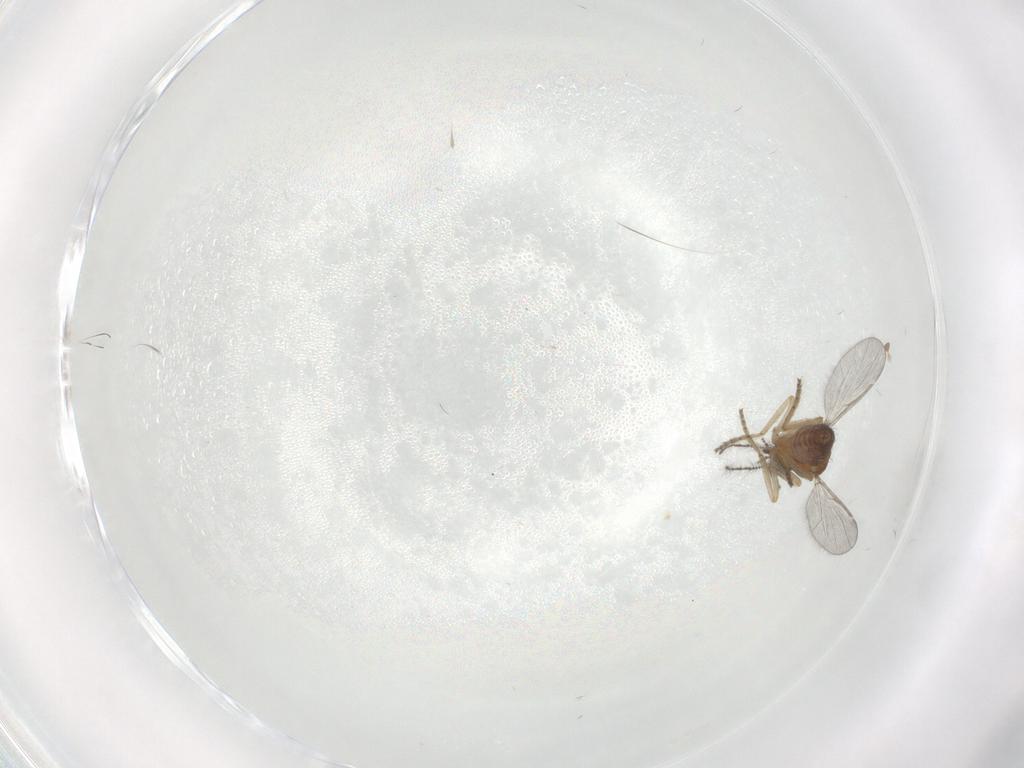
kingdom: Animalia
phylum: Arthropoda
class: Insecta
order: Diptera
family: Ceratopogonidae
